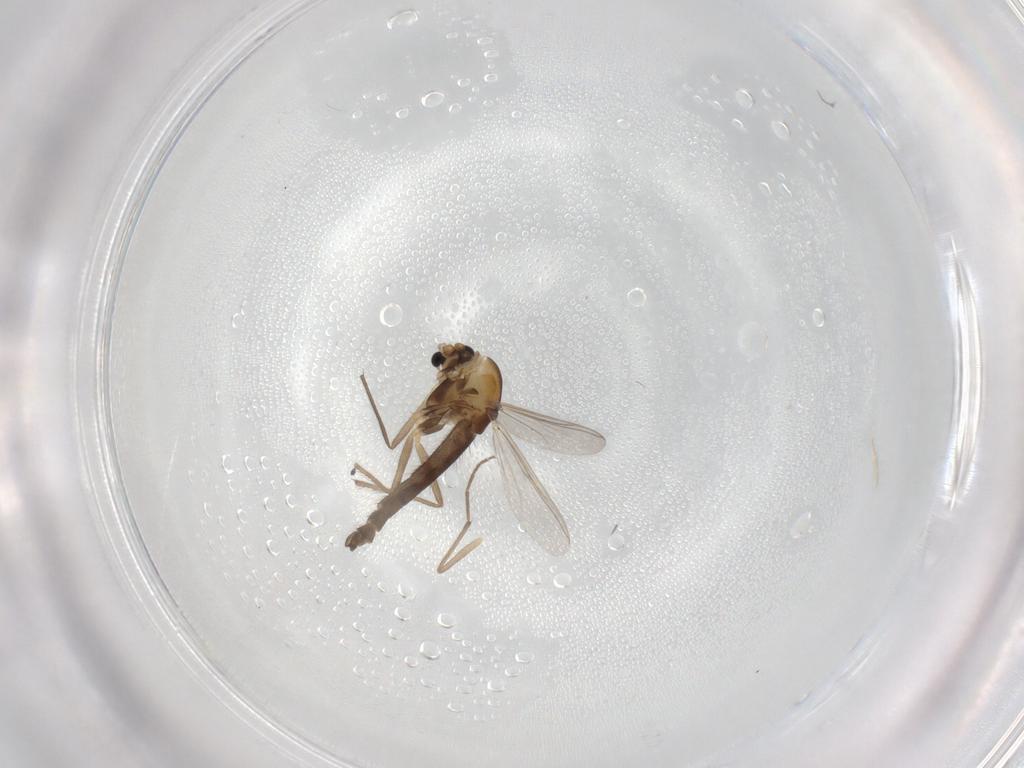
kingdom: Animalia
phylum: Arthropoda
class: Insecta
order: Diptera
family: Chironomidae
